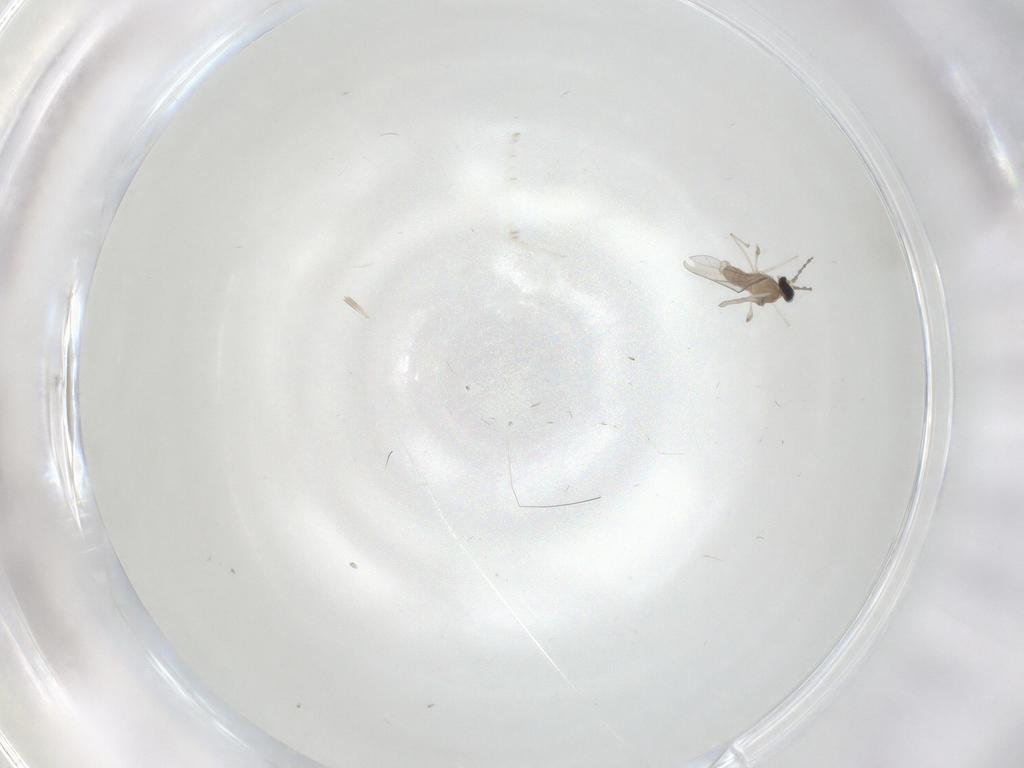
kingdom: Animalia
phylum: Arthropoda
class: Insecta
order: Diptera
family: Cecidomyiidae
